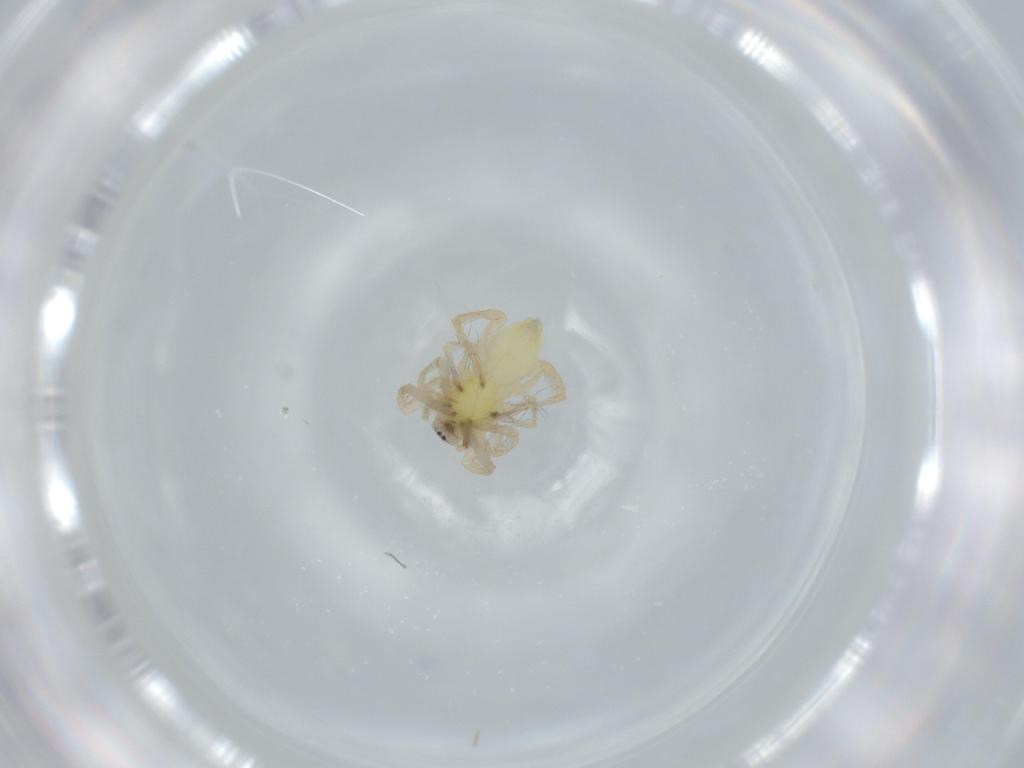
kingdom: Animalia
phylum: Arthropoda
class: Arachnida
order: Araneae
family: Anyphaenidae
